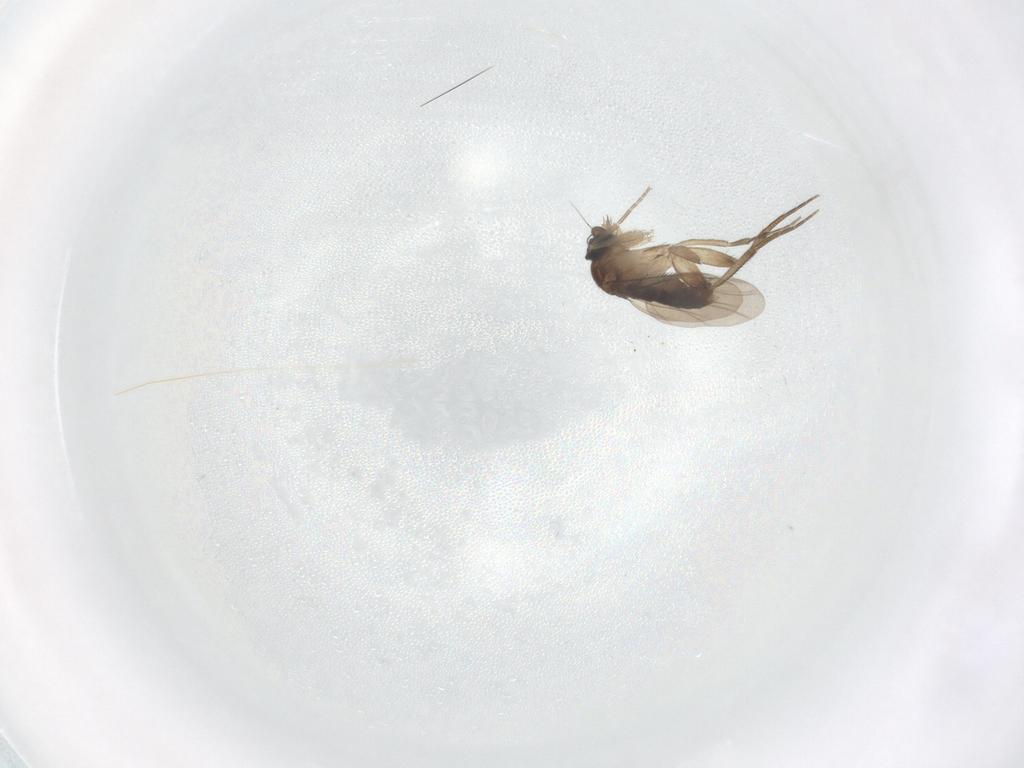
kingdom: Animalia
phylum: Arthropoda
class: Insecta
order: Diptera
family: Phoridae
